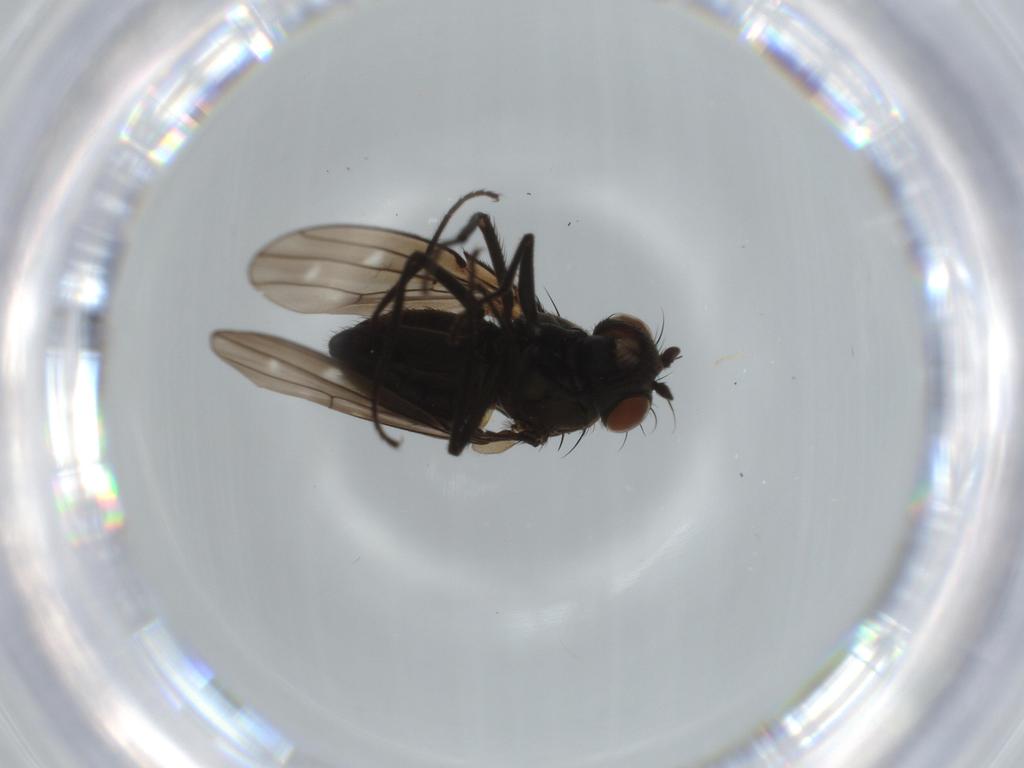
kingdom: Animalia
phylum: Arthropoda
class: Insecta
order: Diptera
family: Ephydridae
